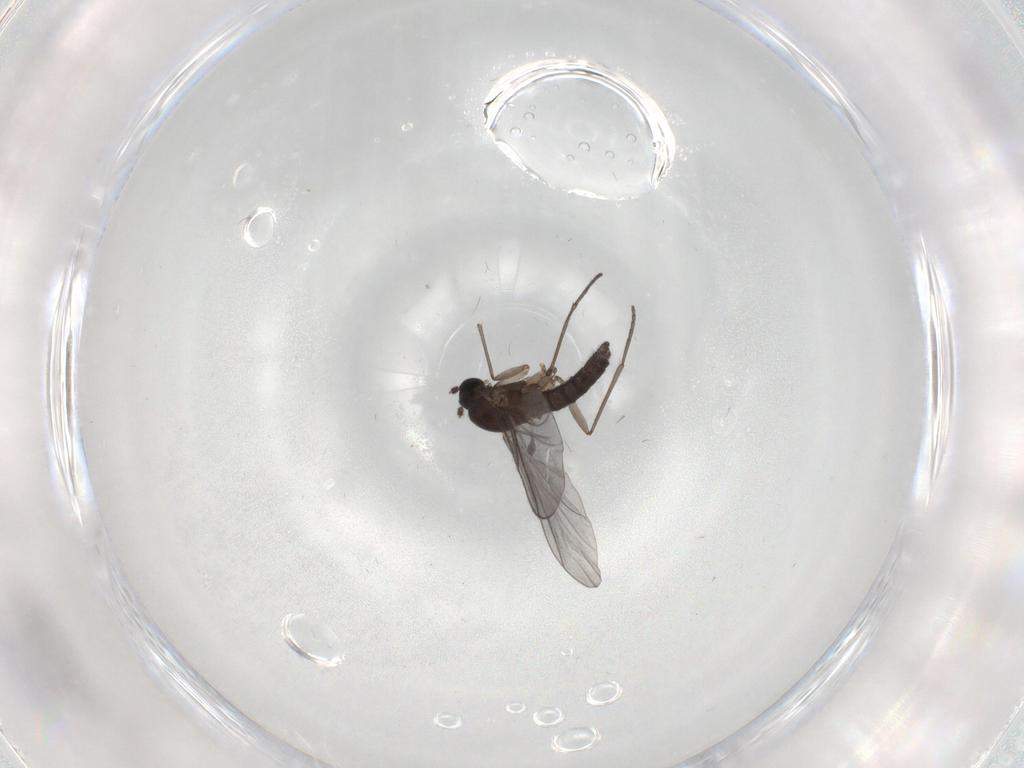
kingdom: Animalia
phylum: Arthropoda
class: Insecta
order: Diptera
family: Sciaridae
